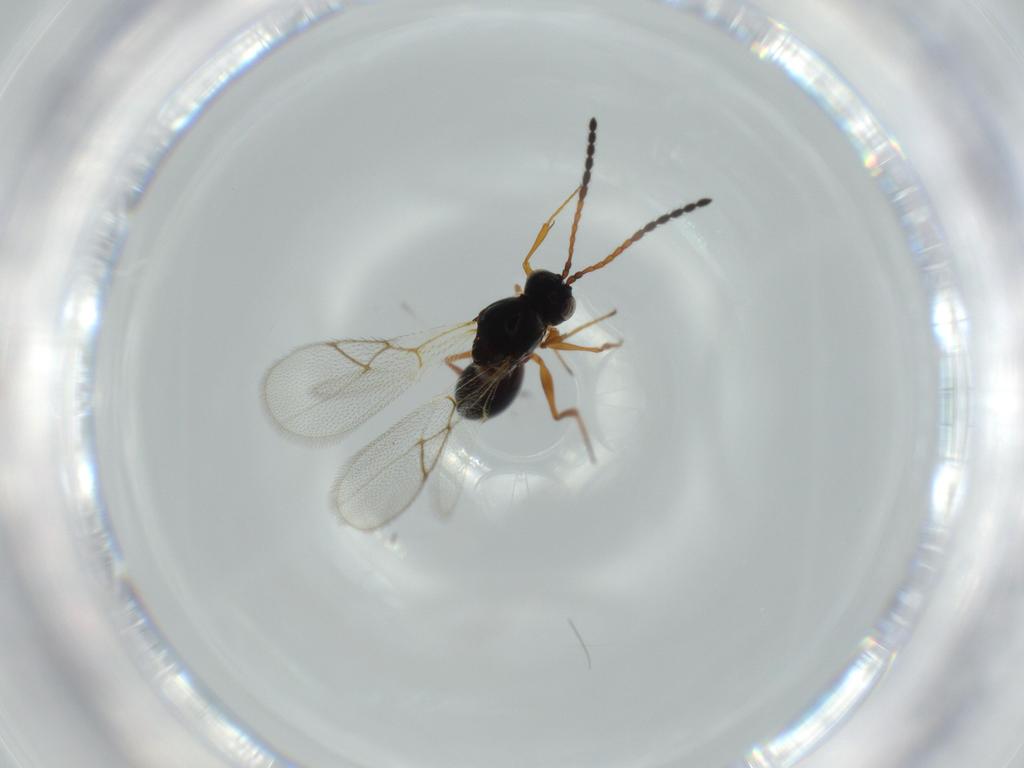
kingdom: Animalia
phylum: Arthropoda
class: Insecta
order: Hymenoptera
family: Figitidae
